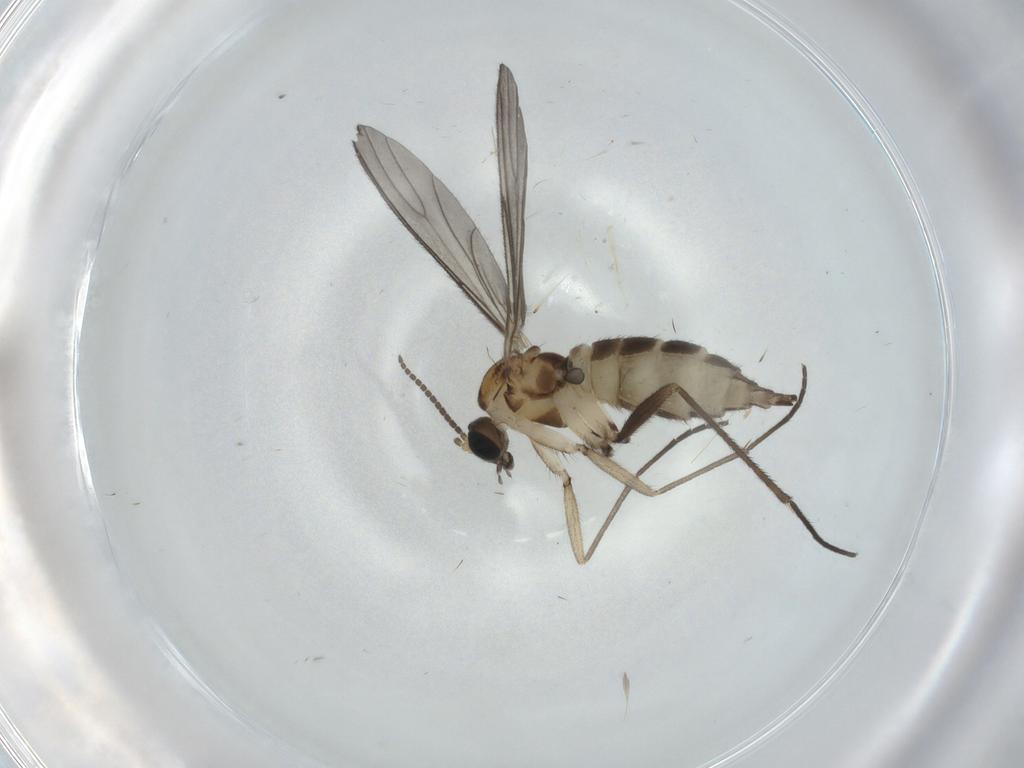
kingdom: Animalia
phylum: Arthropoda
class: Insecta
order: Diptera
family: Sciaridae
